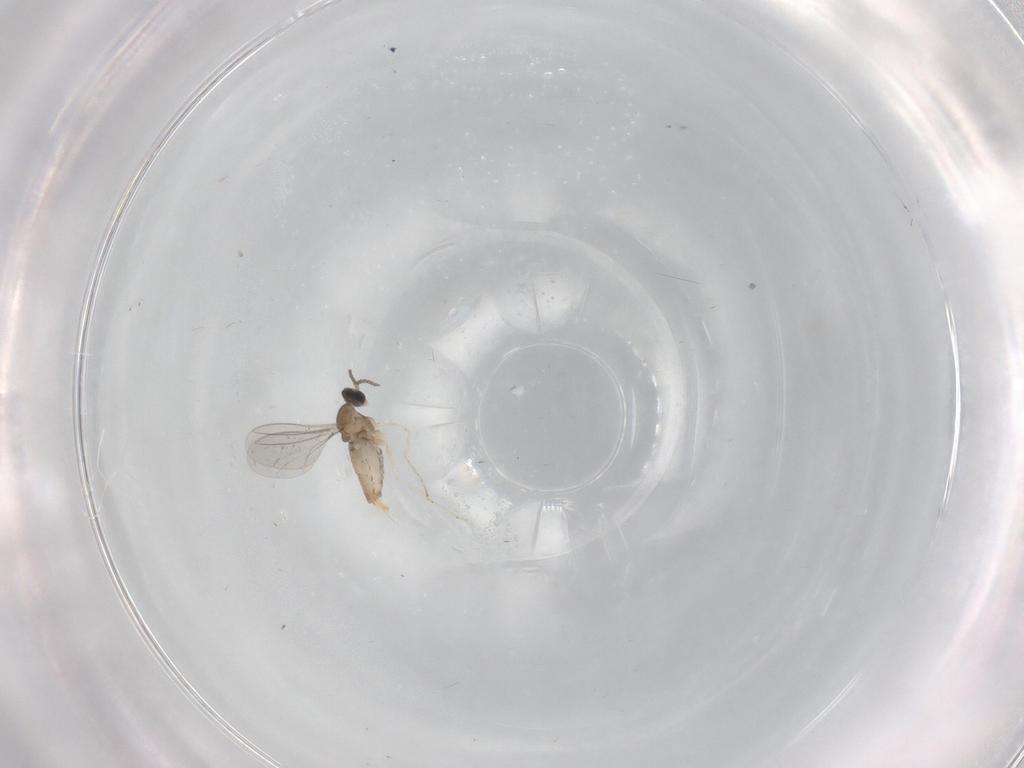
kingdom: Animalia
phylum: Arthropoda
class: Insecta
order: Diptera
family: Cecidomyiidae
